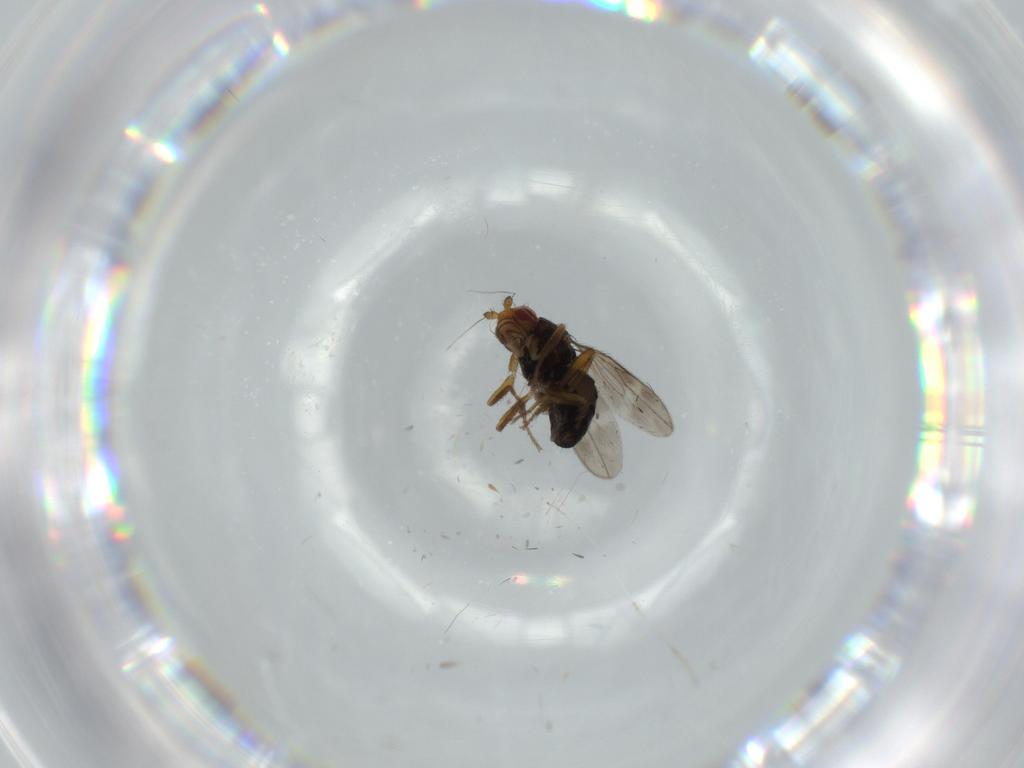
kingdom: Animalia
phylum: Arthropoda
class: Insecta
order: Diptera
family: Sphaeroceridae
